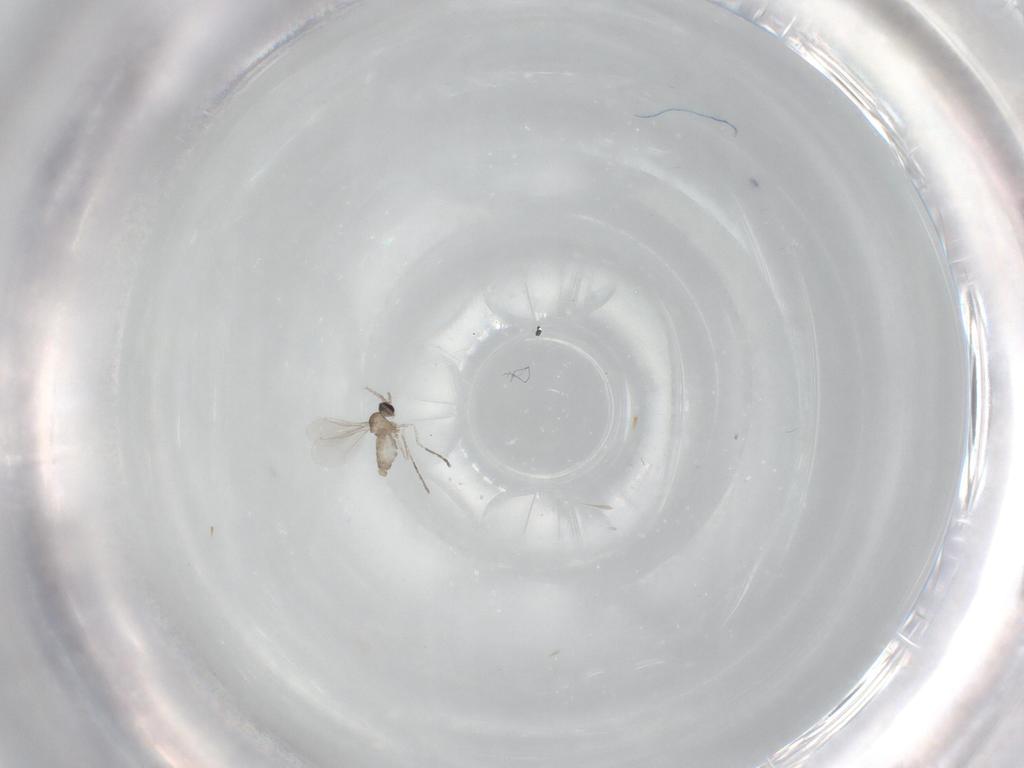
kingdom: Animalia
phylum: Arthropoda
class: Insecta
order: Diptera
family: Cecidomyiidae
